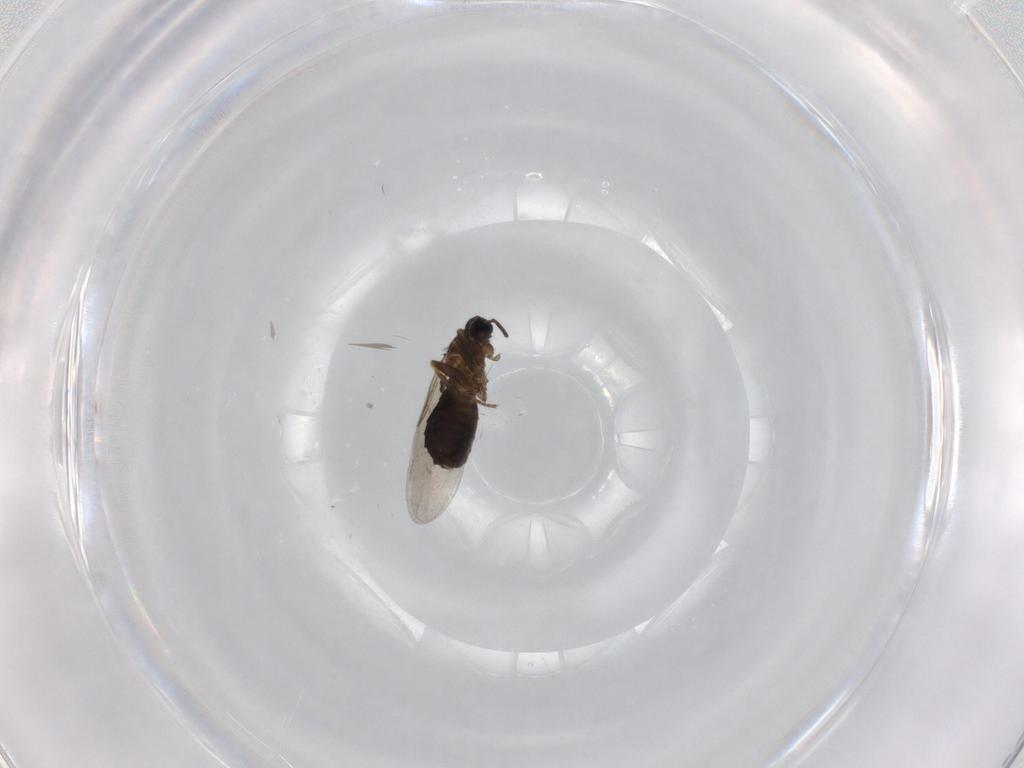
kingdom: Animalia
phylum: Arthropoda
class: Insecta
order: Diptera
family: Scatopsidae
